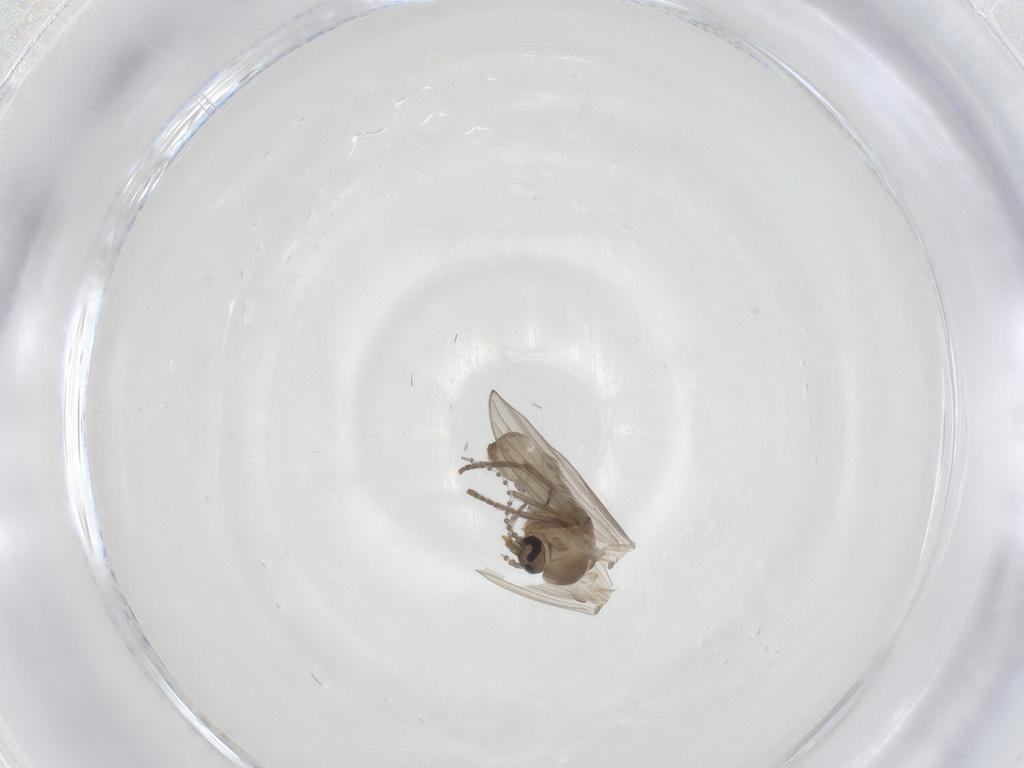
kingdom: Animalia
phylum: Arthropoda
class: Insecta
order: Diptera
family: Psychodidae
